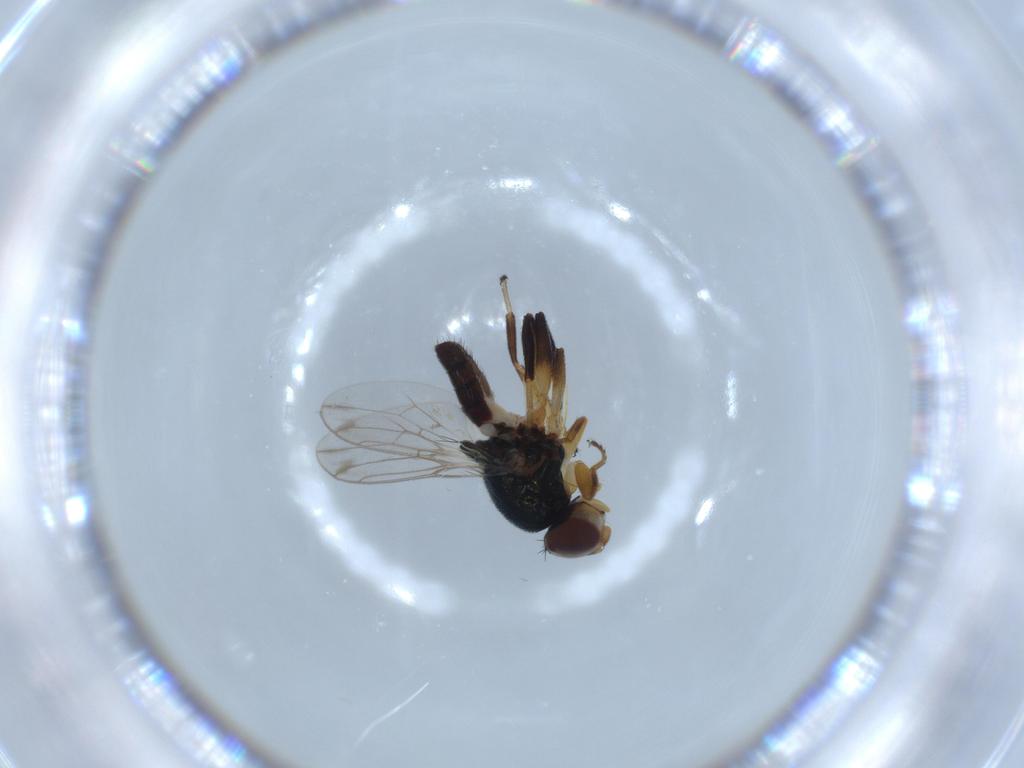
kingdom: Animalia
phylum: Arthropoda
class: Insecta
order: Diptera
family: Chloropidae
